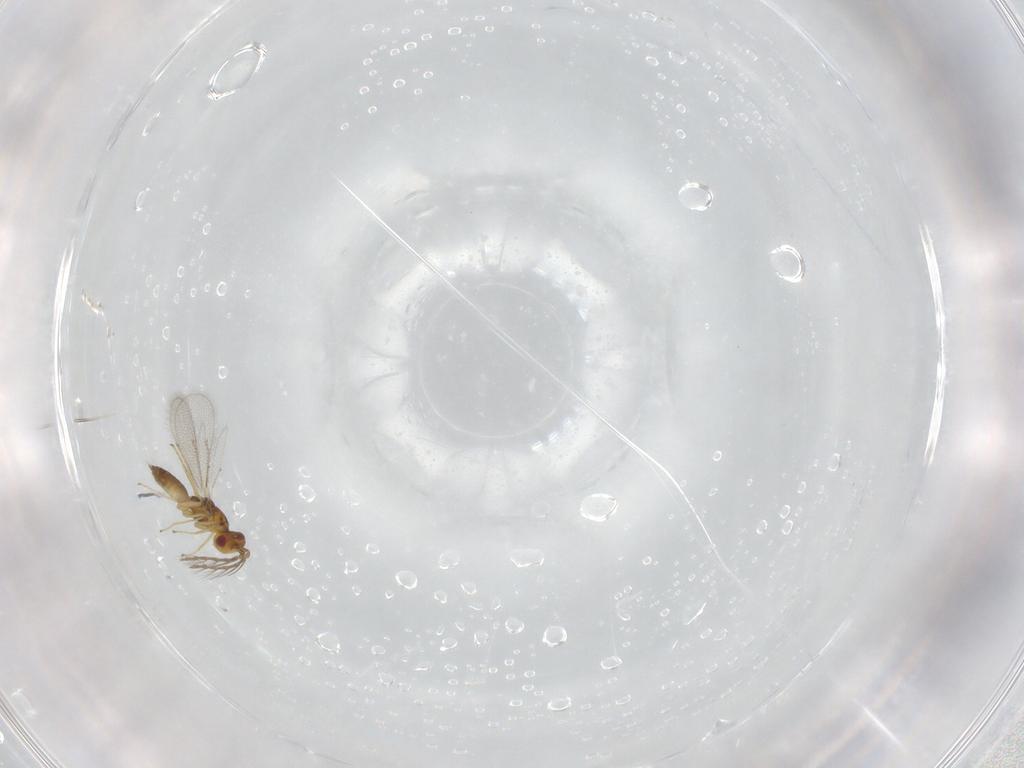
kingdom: Animalia
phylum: Arthropoda
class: Insecta
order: Hymenoptera
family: Eulophidae
